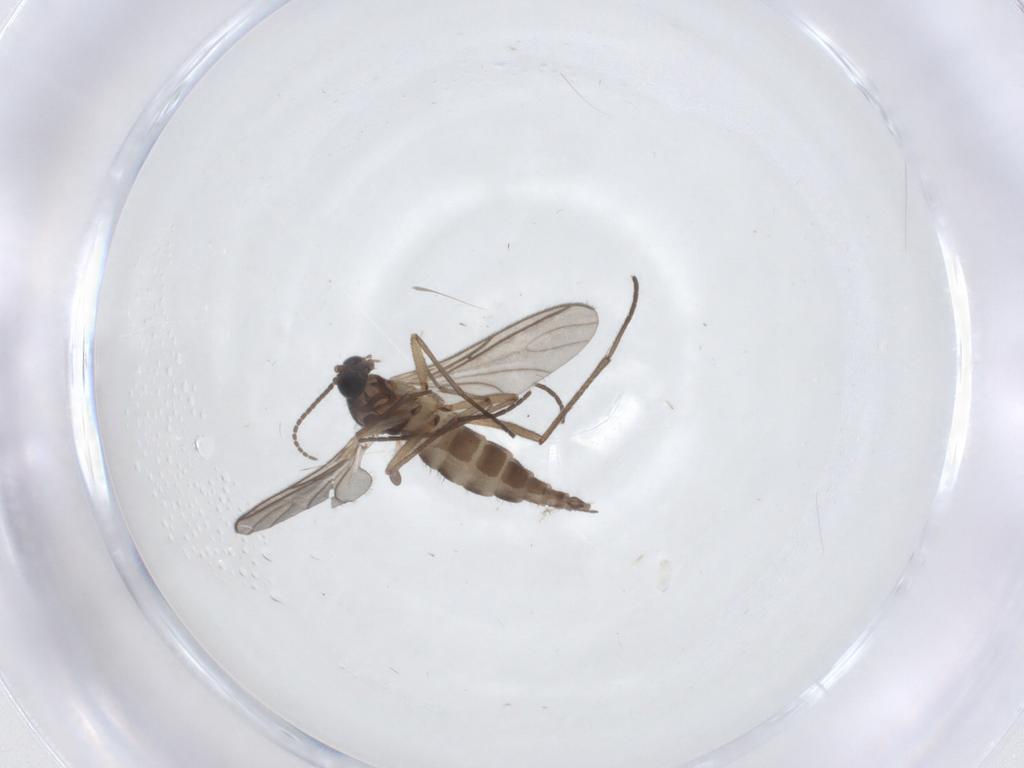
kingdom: Animalia
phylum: Arthropoda
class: Insecta
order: Diptera
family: Sciaridae
